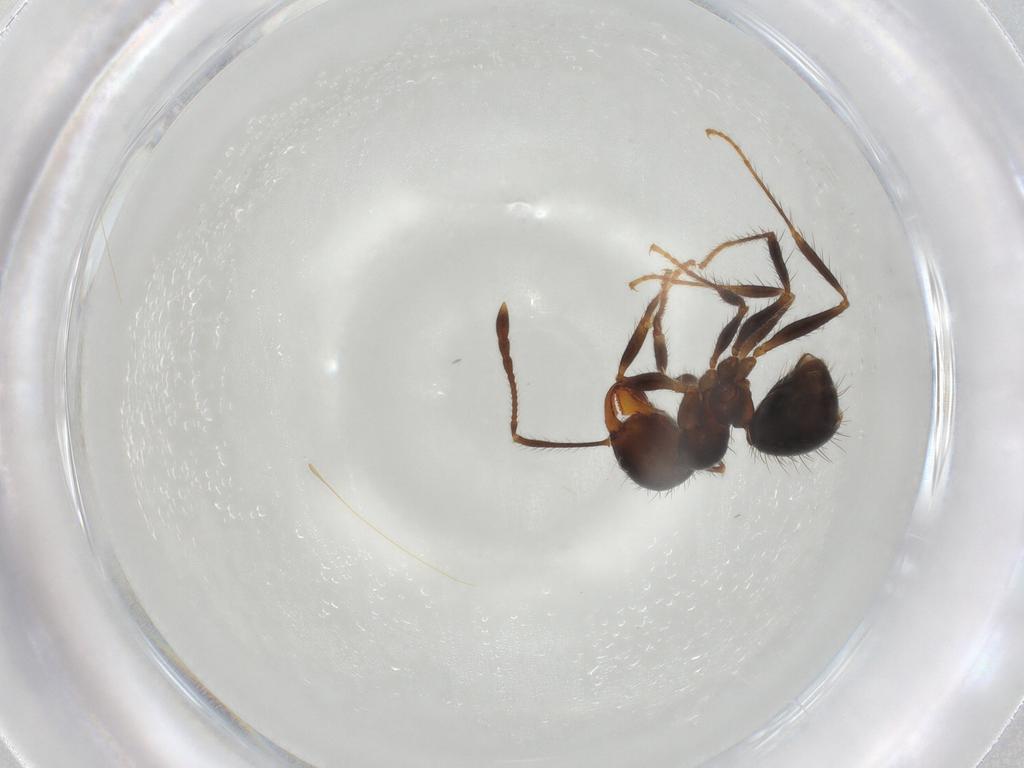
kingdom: Animalia
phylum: Arthropoda
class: Insecta
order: Hymenoptera
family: Formicidae
